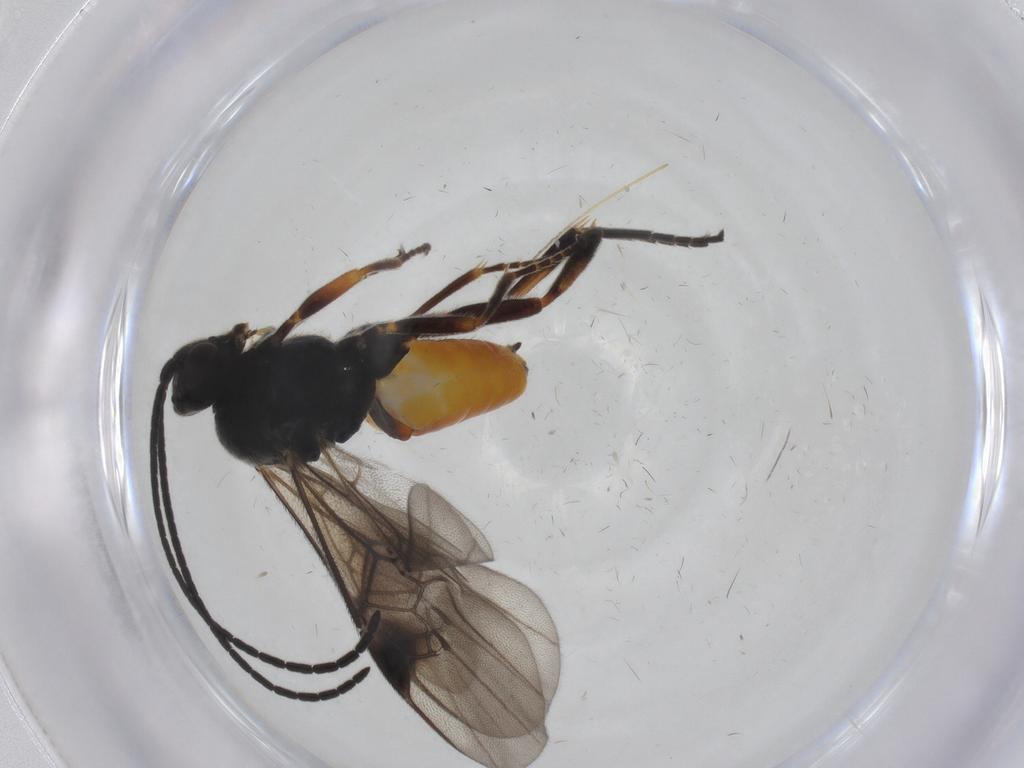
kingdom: Animalia
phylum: Arthropoda
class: Insecta
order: Hymenoptera
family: Braconidae
